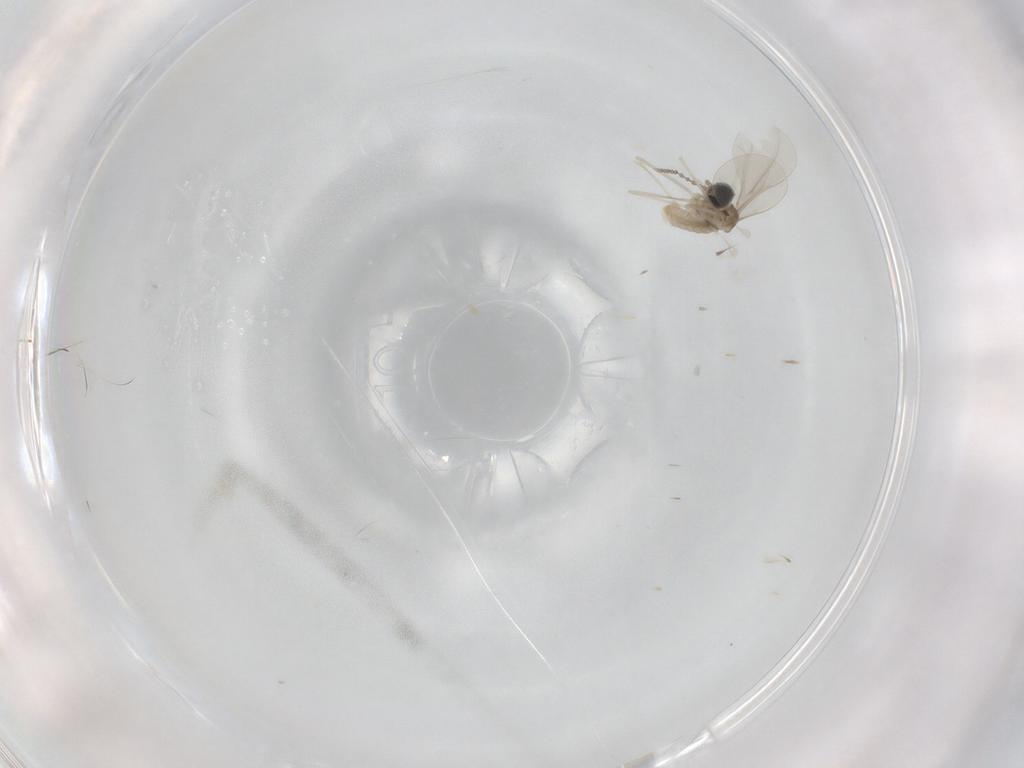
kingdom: Animalia
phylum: Arthropoda
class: Insecta
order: Diptera
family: Cecidomyiidae
